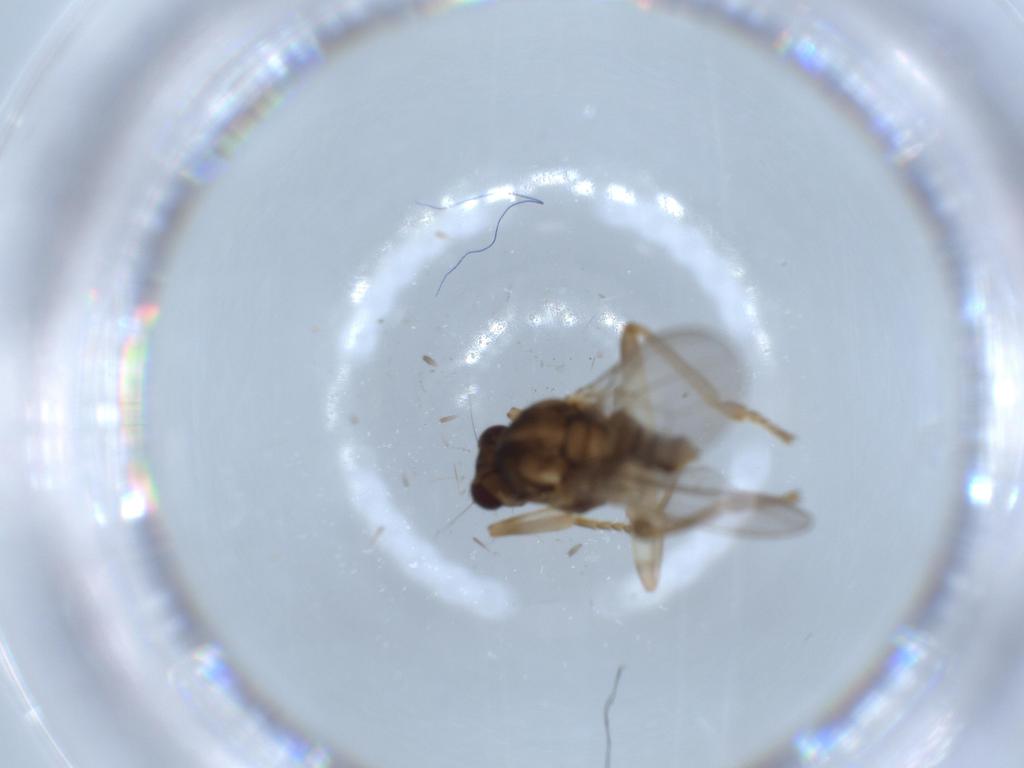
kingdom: Animalia
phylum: Arthropoda
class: Insecta
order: Diptera
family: Sphaeroceridae
